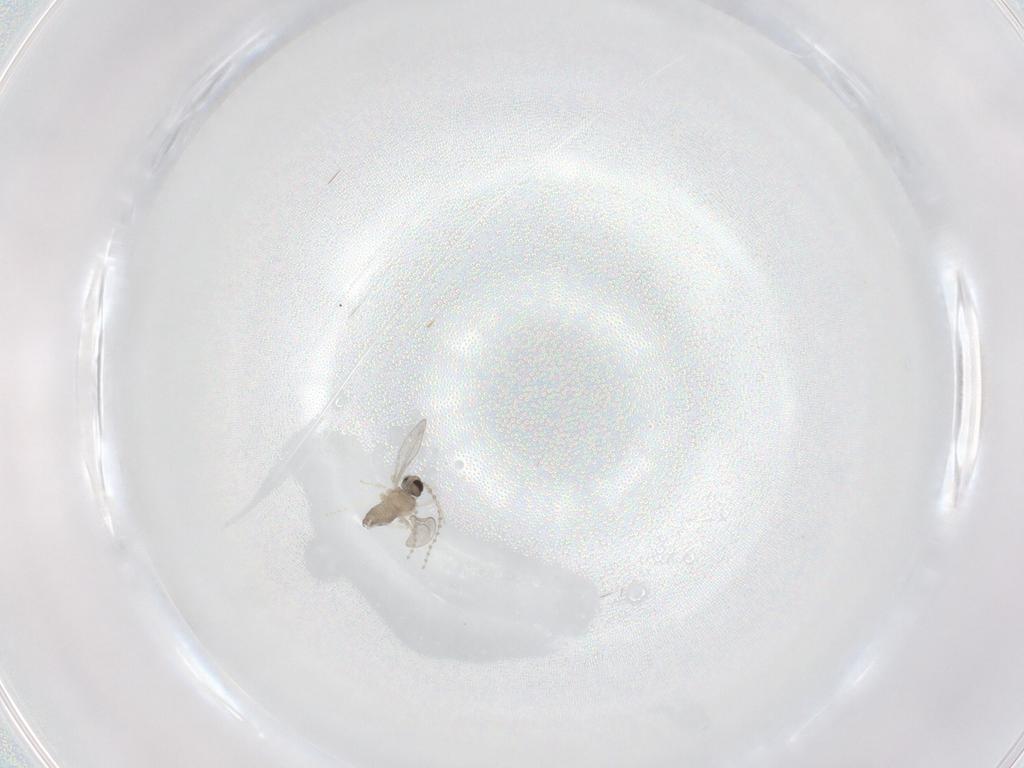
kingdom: Animalia
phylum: Arthropoda
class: Insecta
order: Diptera
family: Cecidomyiidae
